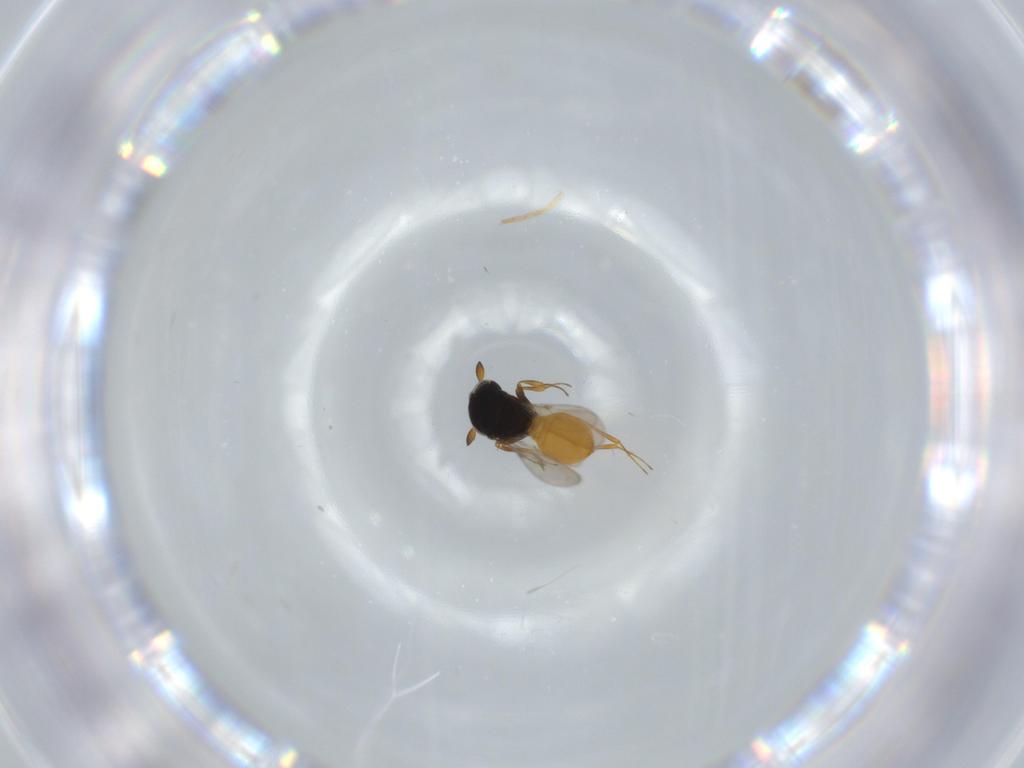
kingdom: Animalia
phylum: Arthropoda
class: Insecta
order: Hymenoptera
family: Scelionidae
